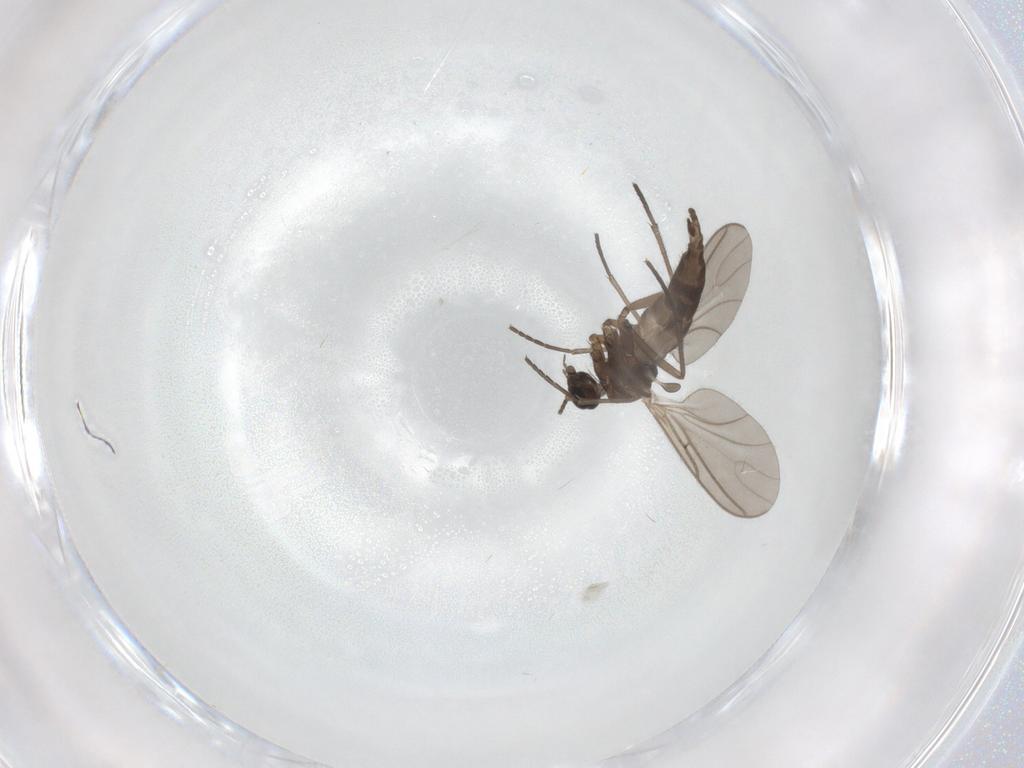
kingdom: Animalia
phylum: Arthropoda
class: Insecta
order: Diptera
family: Sciaridae
